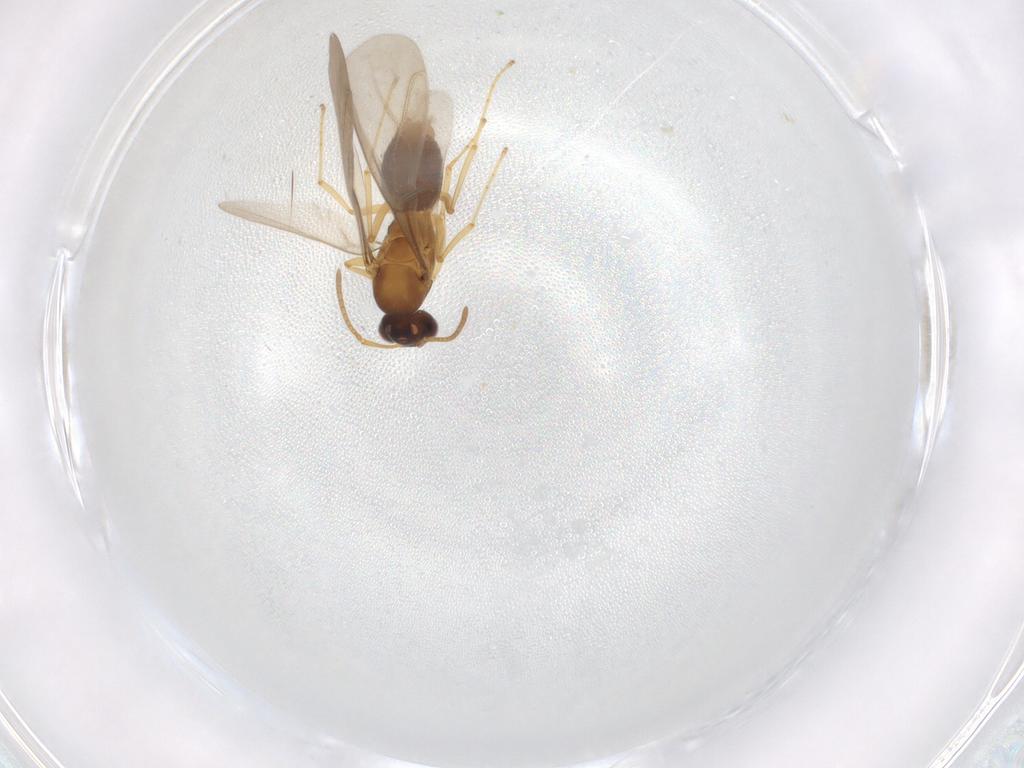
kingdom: Animalia
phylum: Arthropoda
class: Insecta
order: Hymenoptera
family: Formicidae
